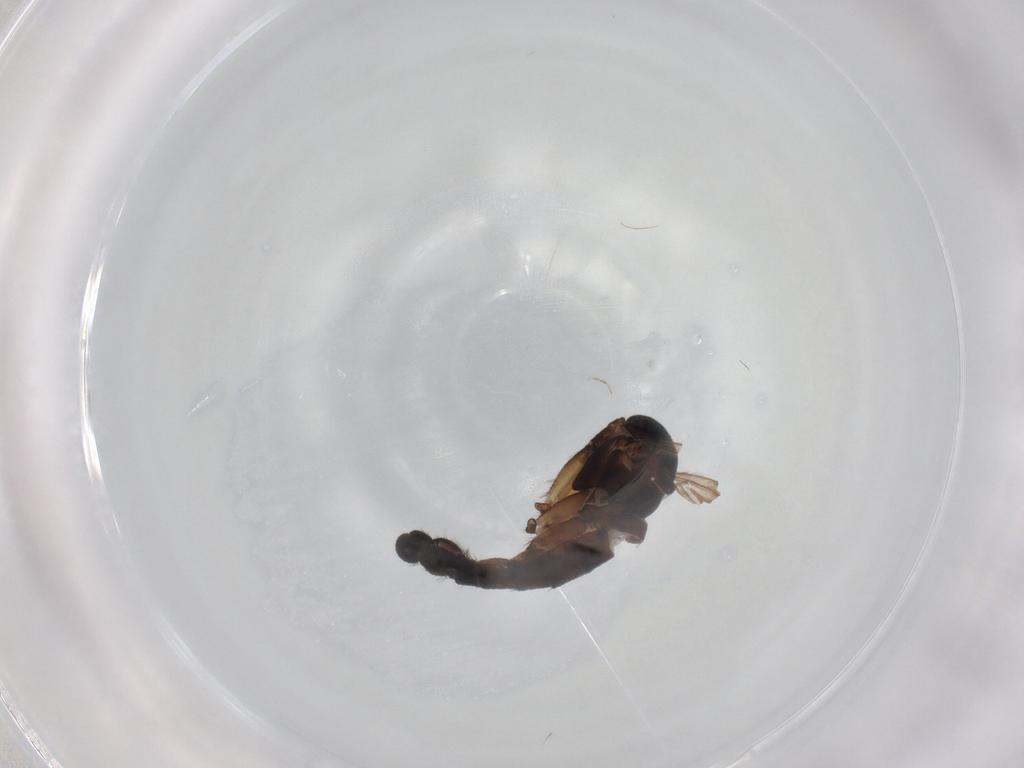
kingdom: Animalia
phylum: Arthropoda
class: Insecta
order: Diptera
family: Sciaridae
